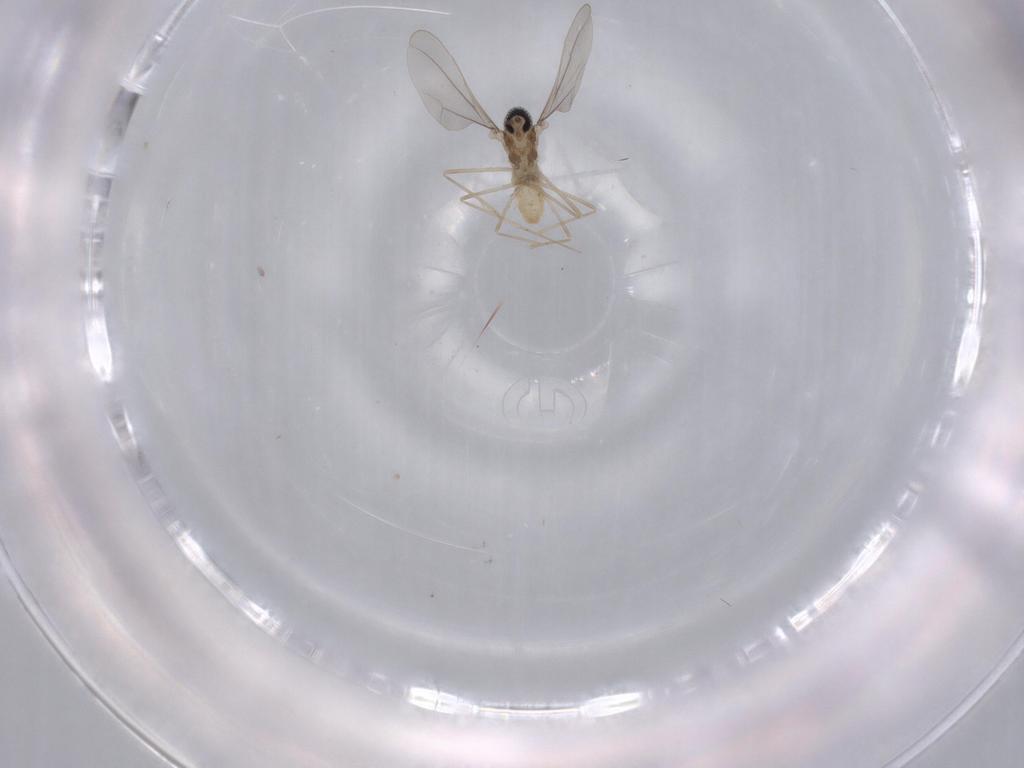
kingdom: Animalia
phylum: Arthropoda
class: Insecta
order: Diptera
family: Cecidomyiidae
